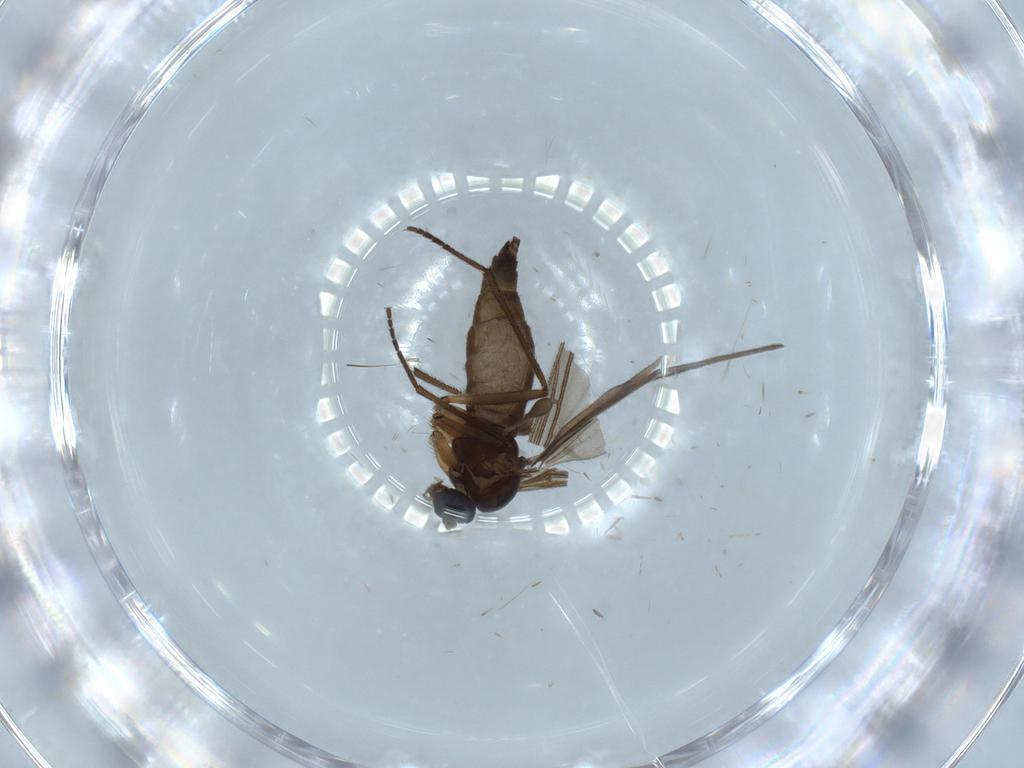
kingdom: Animalia
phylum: Arthropoda
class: Insecta
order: Diptera
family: Sciaridae
